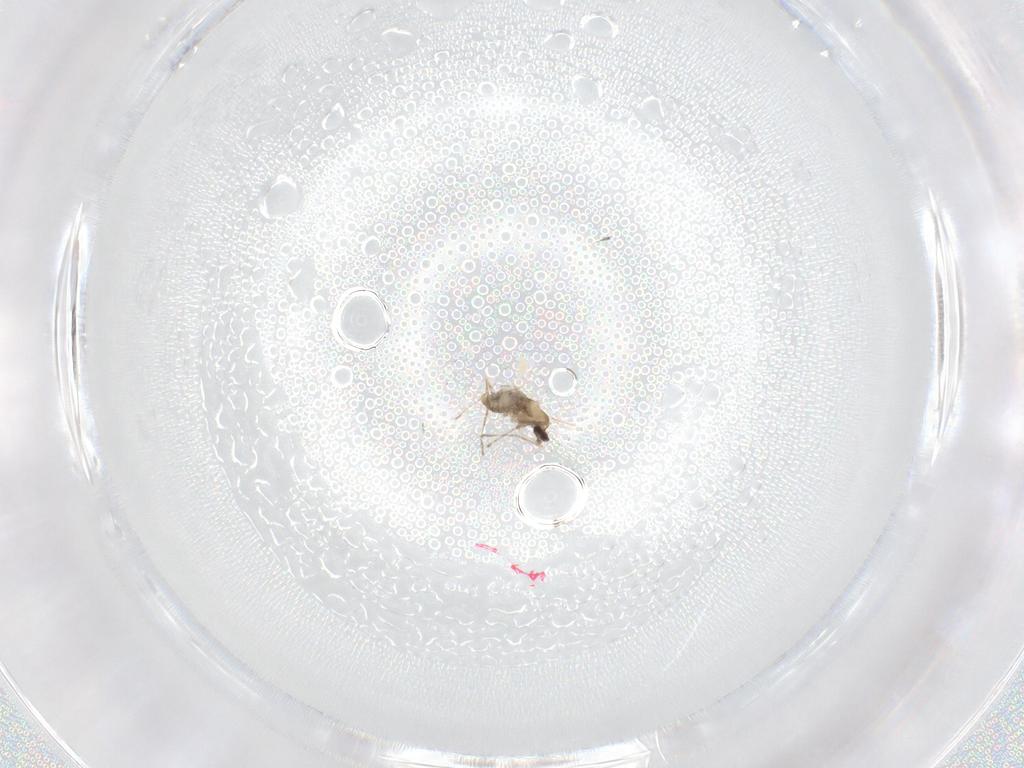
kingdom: Animalia
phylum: Arthropoda
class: Insecta
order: Diptera
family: Cecidomyiidae
